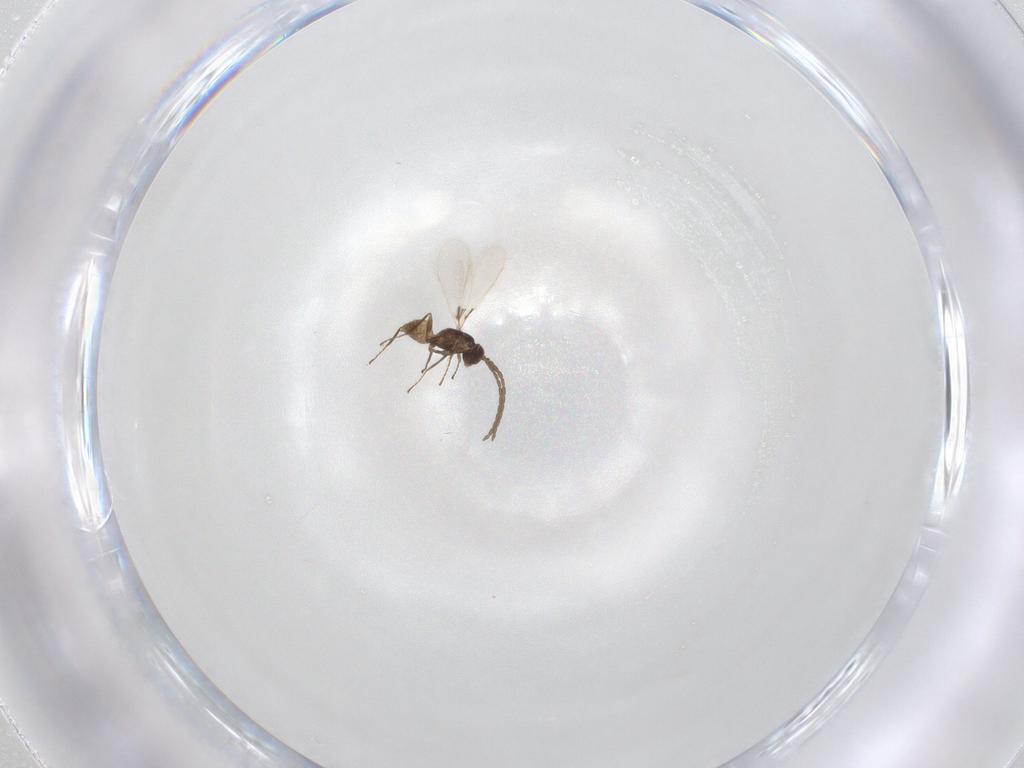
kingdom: Animalia
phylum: Arthropoda
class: Insecta
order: Hymenoptera
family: Mymaridae
